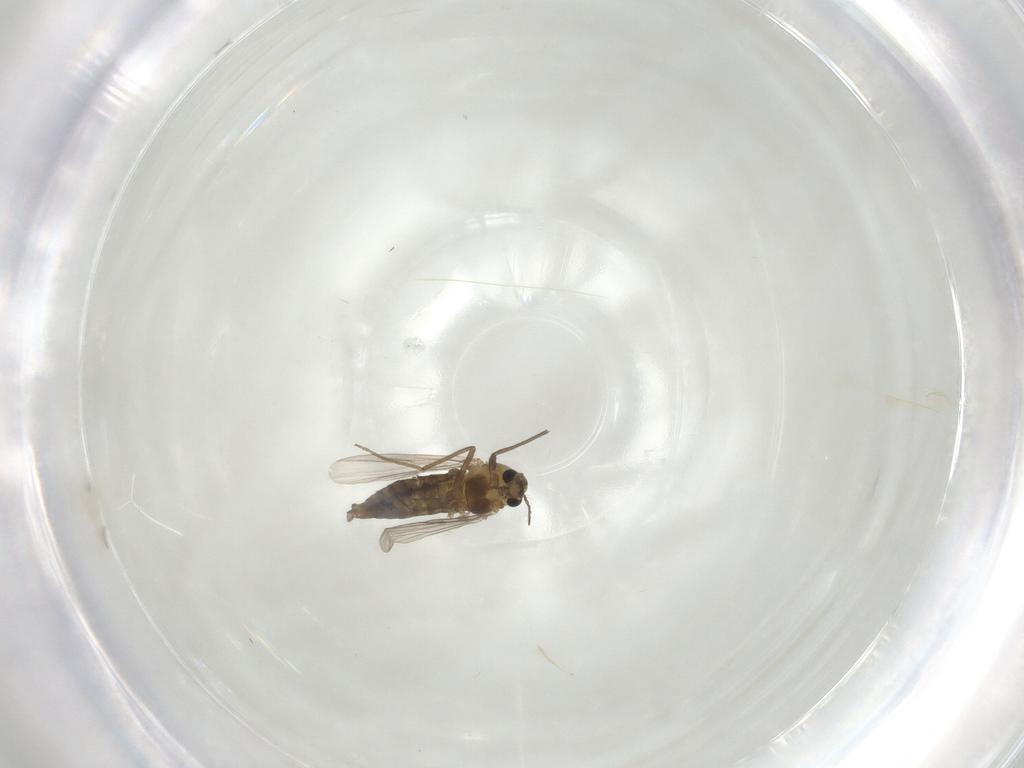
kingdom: Animalia
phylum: Arthropoda
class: Insecta
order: Diptera
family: Chironomidae
